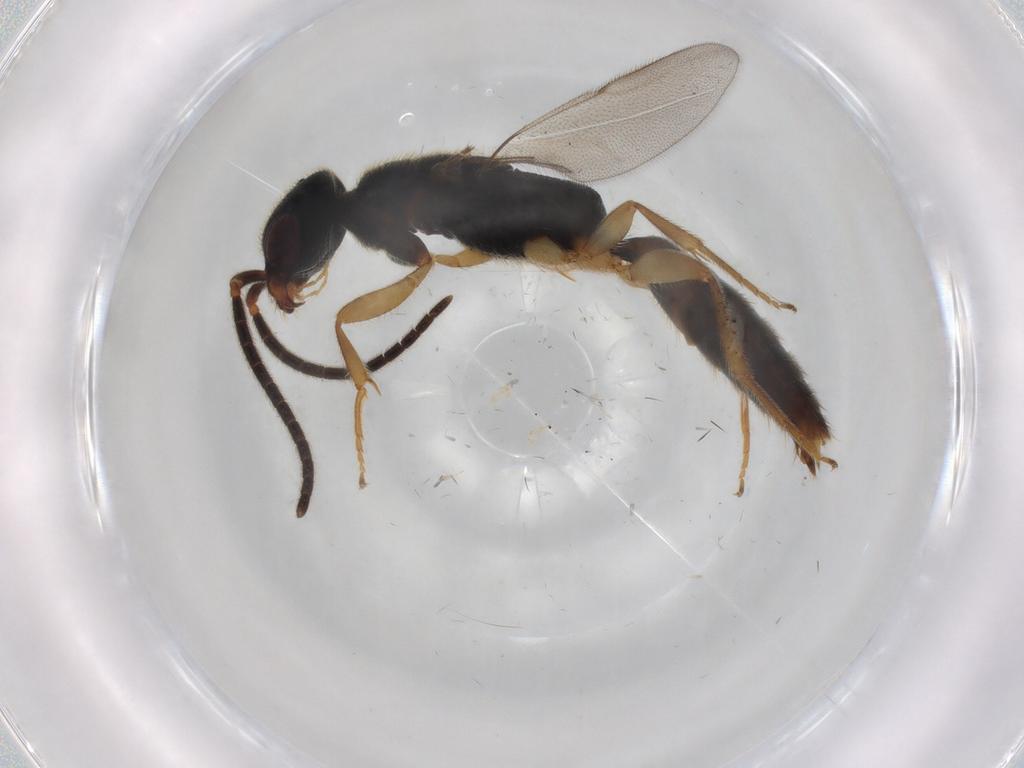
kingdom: Animalia
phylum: Arthropoda
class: Insecta
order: Hymenoptera
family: Bethylidae
